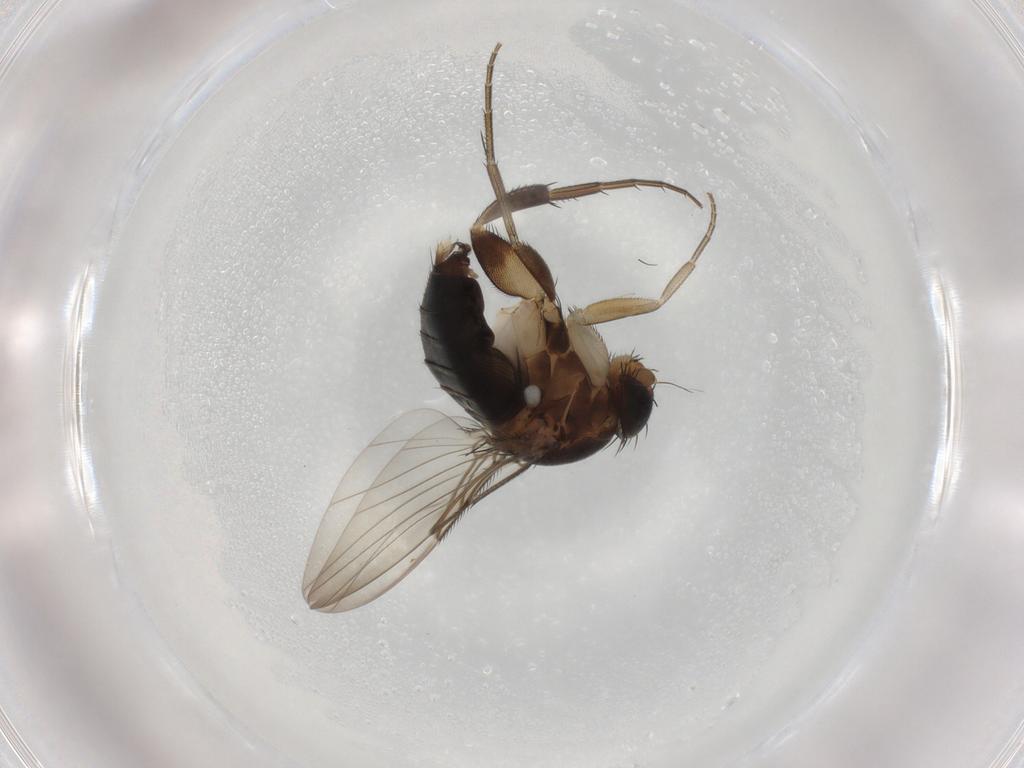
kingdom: Animalia
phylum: Arthropoda
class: Insecta
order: Diptera
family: Phoridae
